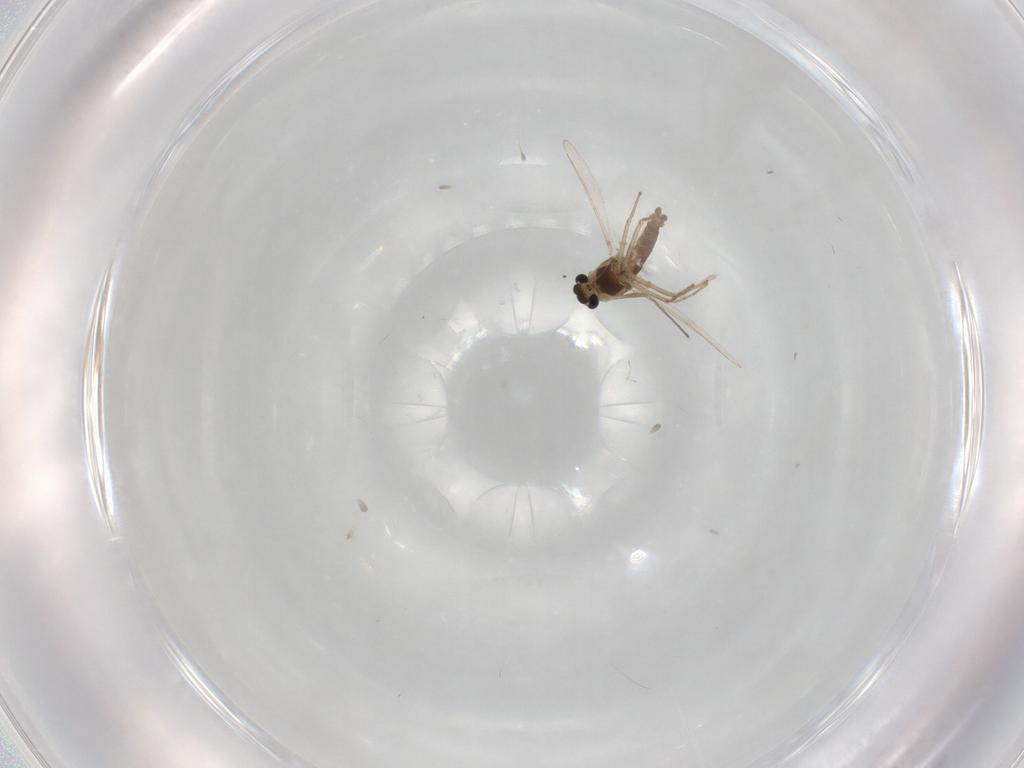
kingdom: Animalia
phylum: Arthropoda
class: Insecta
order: Diptera
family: Chironomidae
